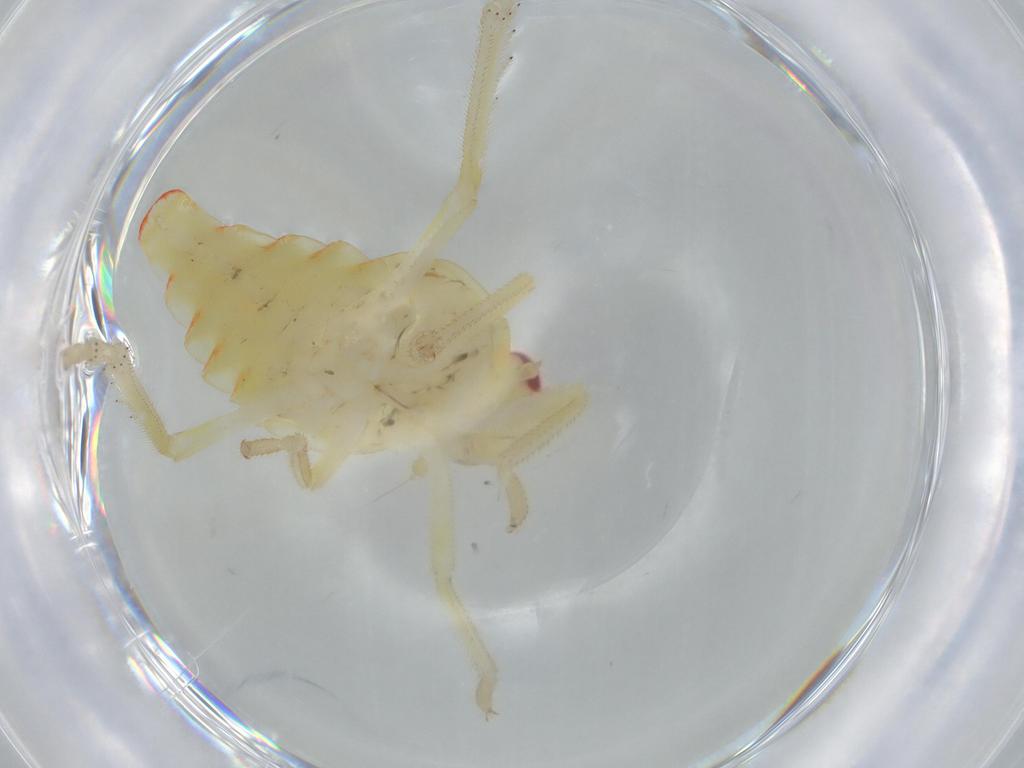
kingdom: Animalia
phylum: Arthropoda
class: Insecta
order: Hemiptera
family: Tropiduchidae
